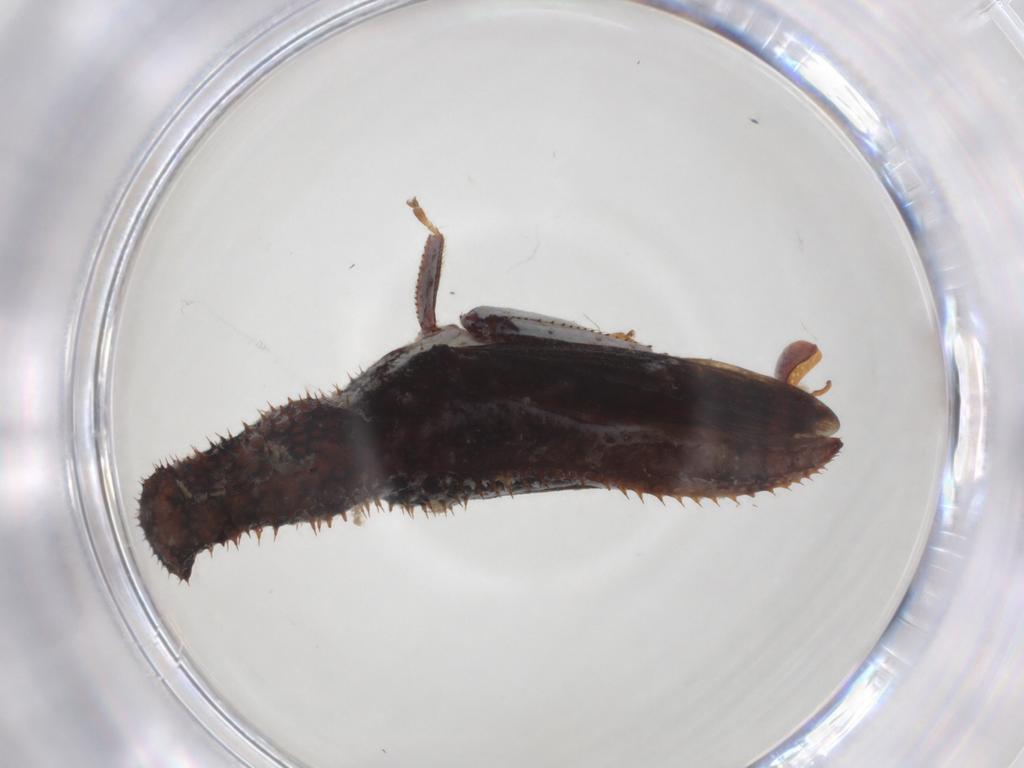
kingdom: Animalia
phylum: Arthropoda
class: Insecta
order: Hemiptera
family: Membracidae
